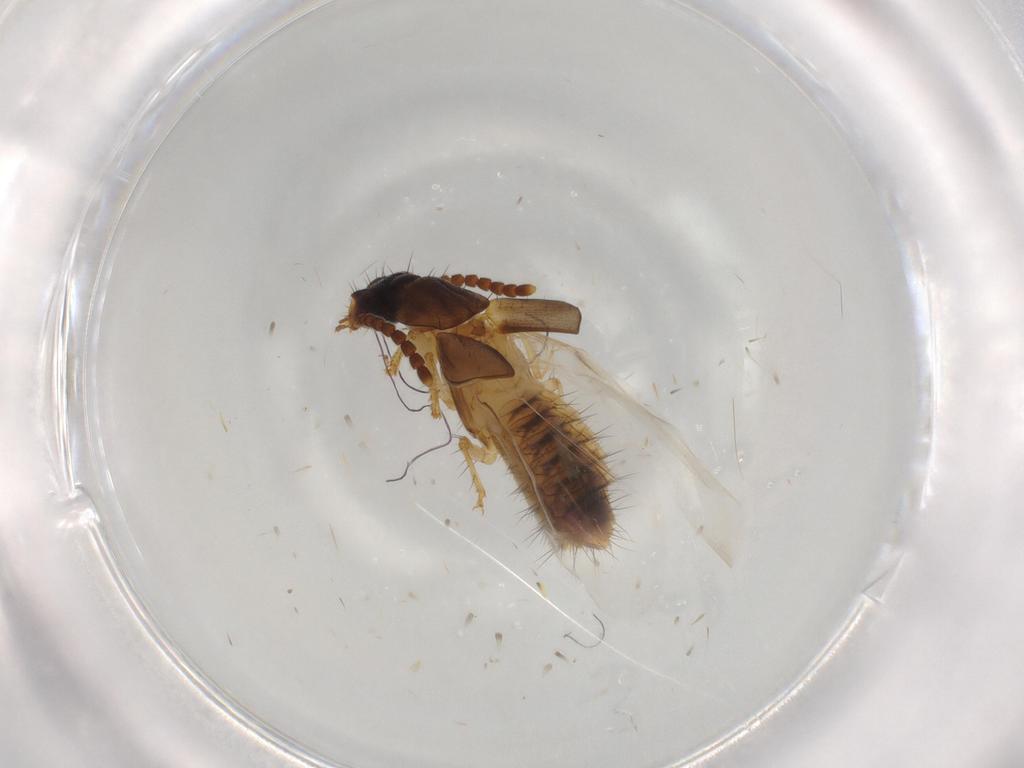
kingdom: Animalia
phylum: Arthropoda
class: Insecta
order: Coleoptera
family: Staphylinidae
